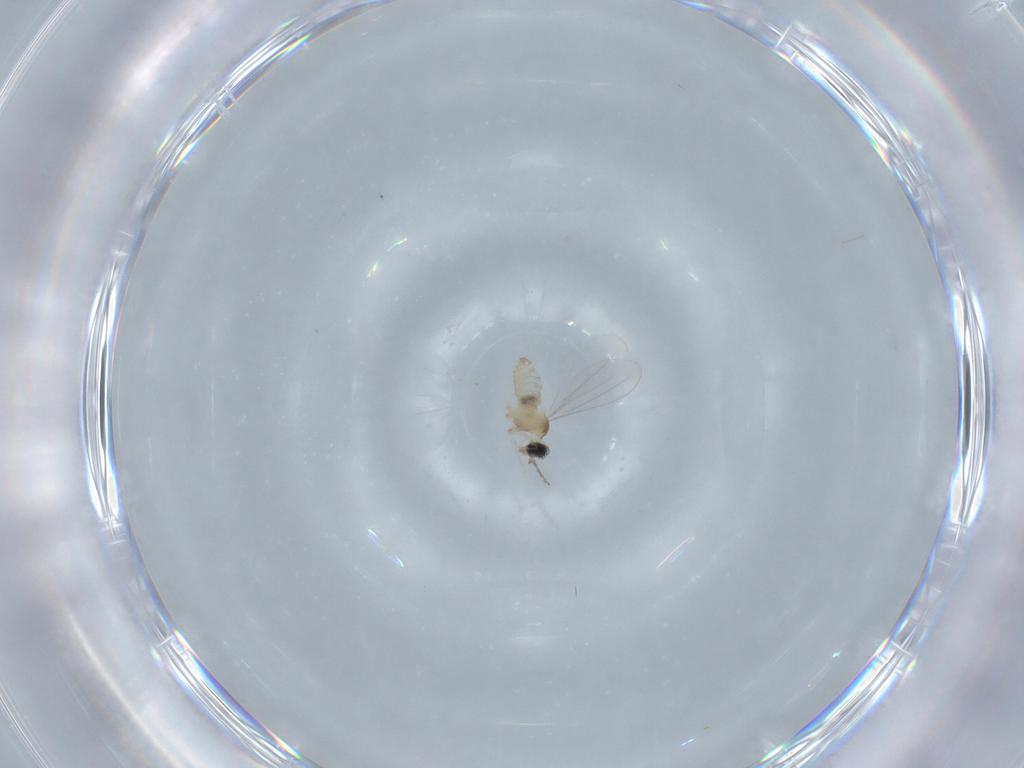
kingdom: Animalia
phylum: Arthropoda
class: Insecta
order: Diptera
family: Cecidomyiidae
